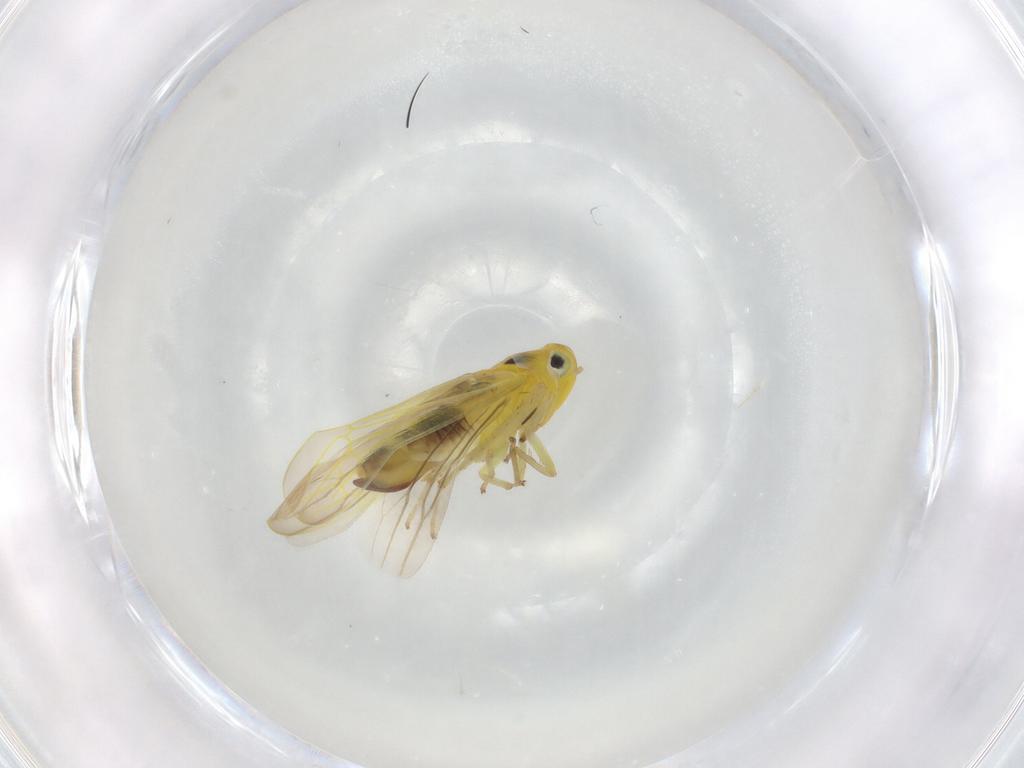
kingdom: Animalia
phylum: Arthropoda
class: Insecta
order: Hemiptera
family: Cicadellidae
